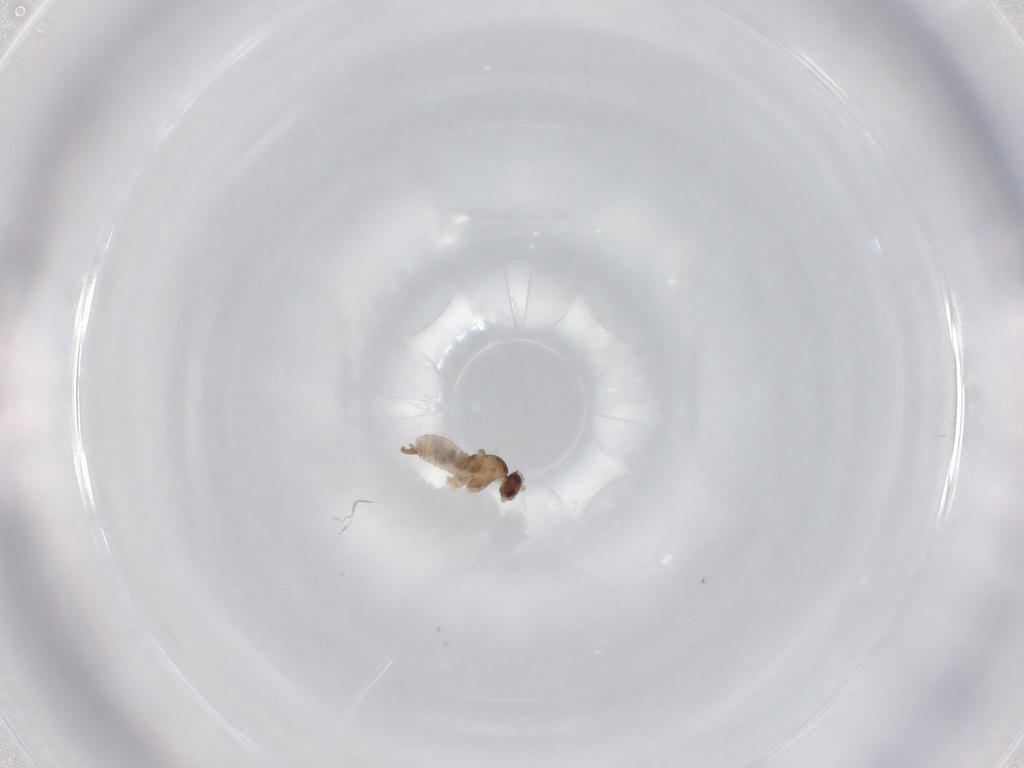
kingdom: Animalia
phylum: Arthropoda
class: Insecta
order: Diptera
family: Cecidomyiidae
